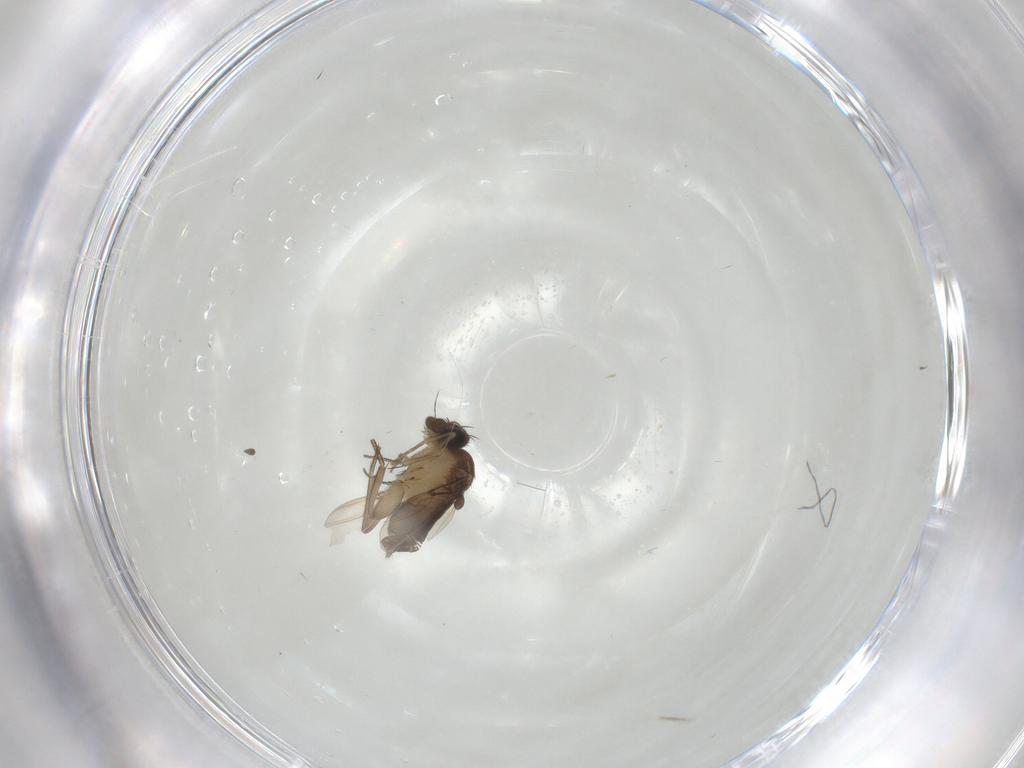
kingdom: Animalia
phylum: Arthropoda
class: Insecta
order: Diptera
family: Phoridae
